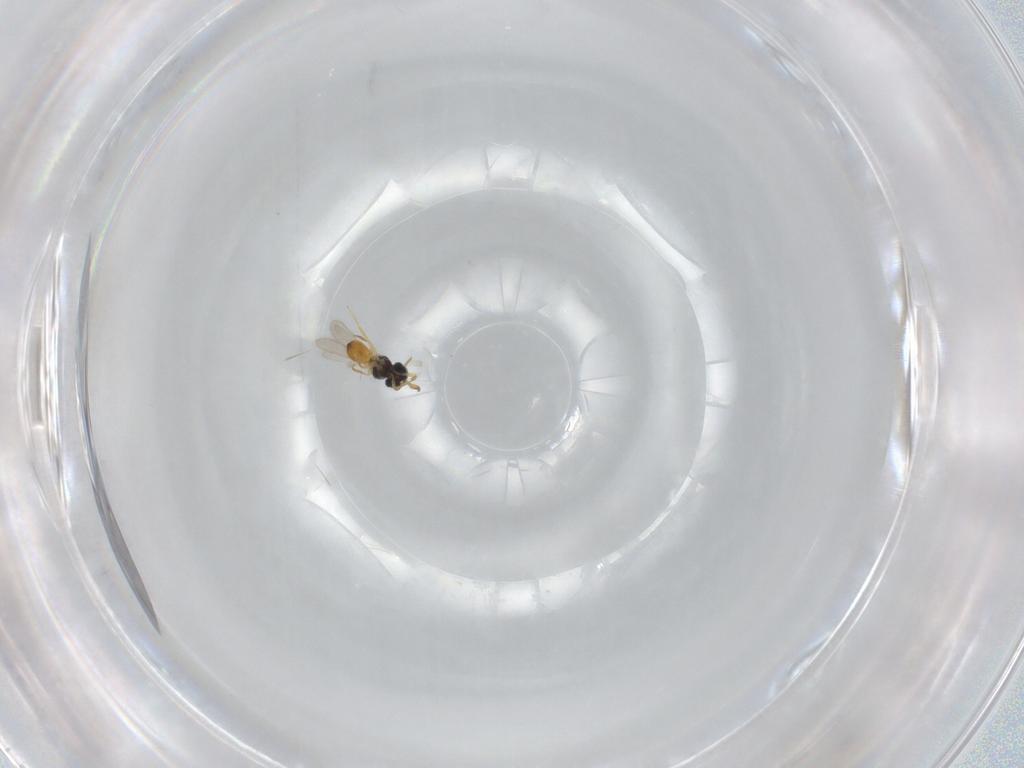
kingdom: Animalia
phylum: Arthropoda
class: Insecta
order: Hymenoptera
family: Scelionidae
